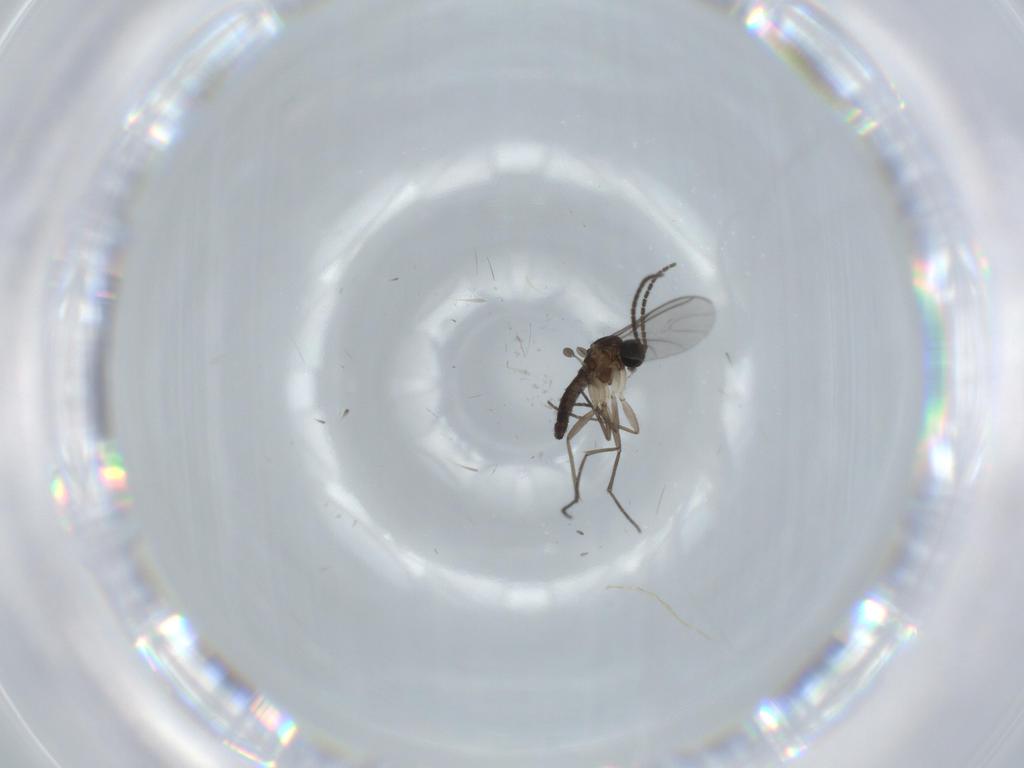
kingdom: Animalia
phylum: Arthropoda
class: Insecta
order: Diptera
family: Sciaridae
